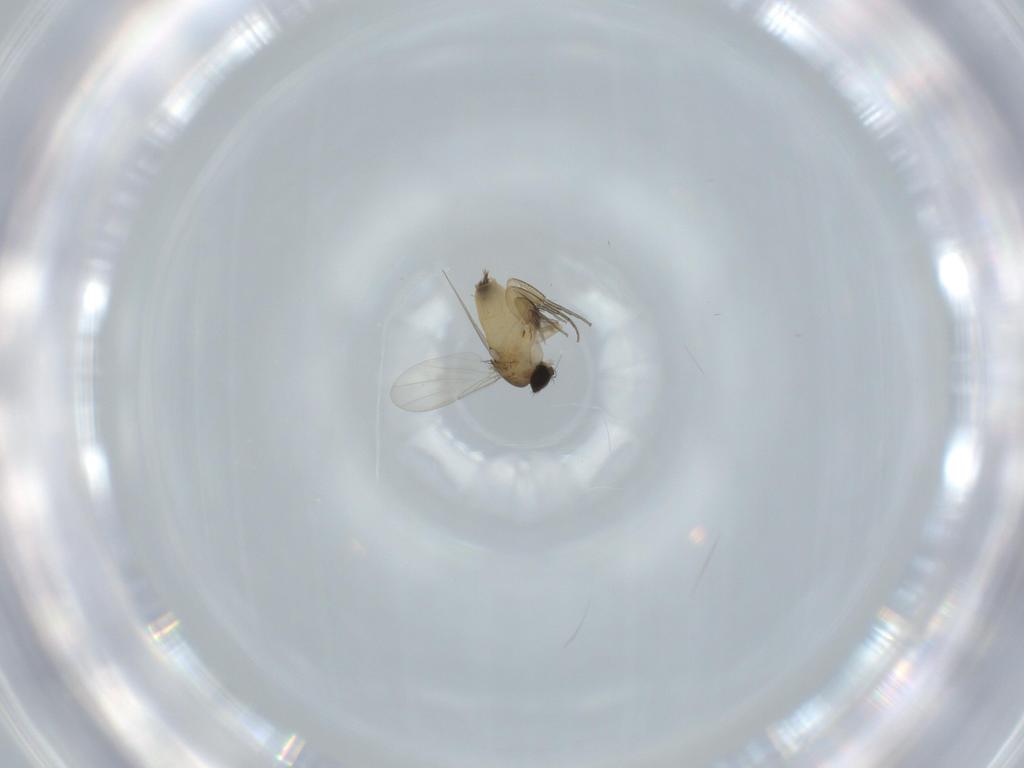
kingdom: Animalia
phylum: Arthropoda
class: Insecta
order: Diptera
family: Phoridae
